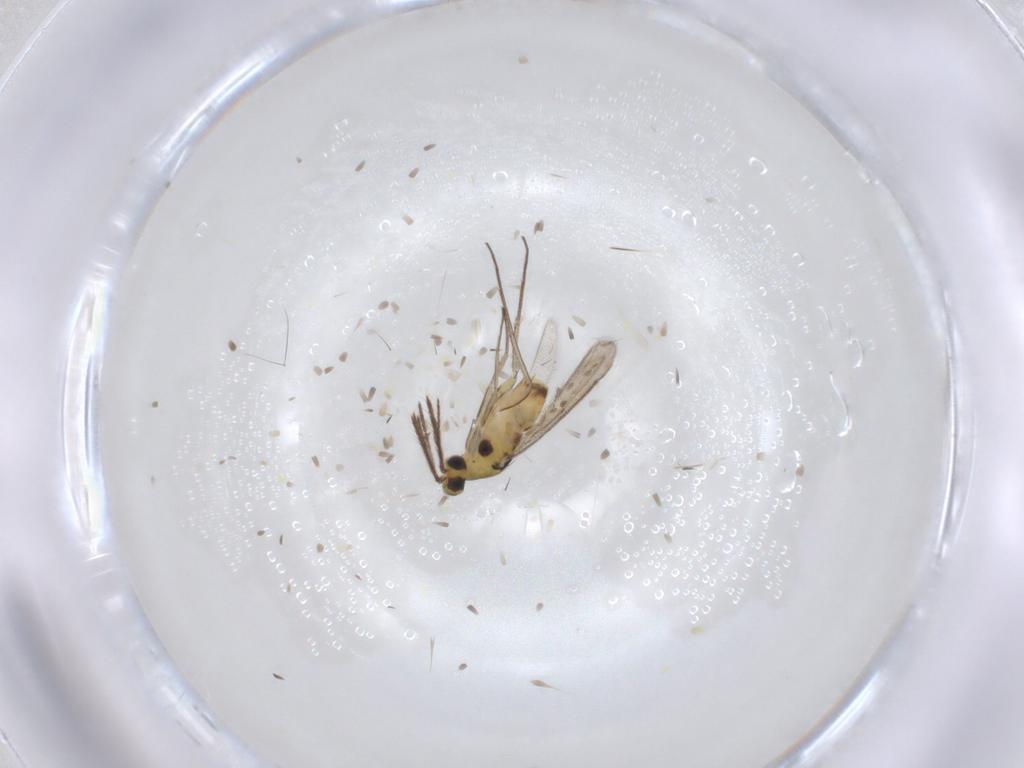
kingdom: Animalia
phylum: Arthropoda
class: Insecta
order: Hymenoptera
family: Eulophidae
